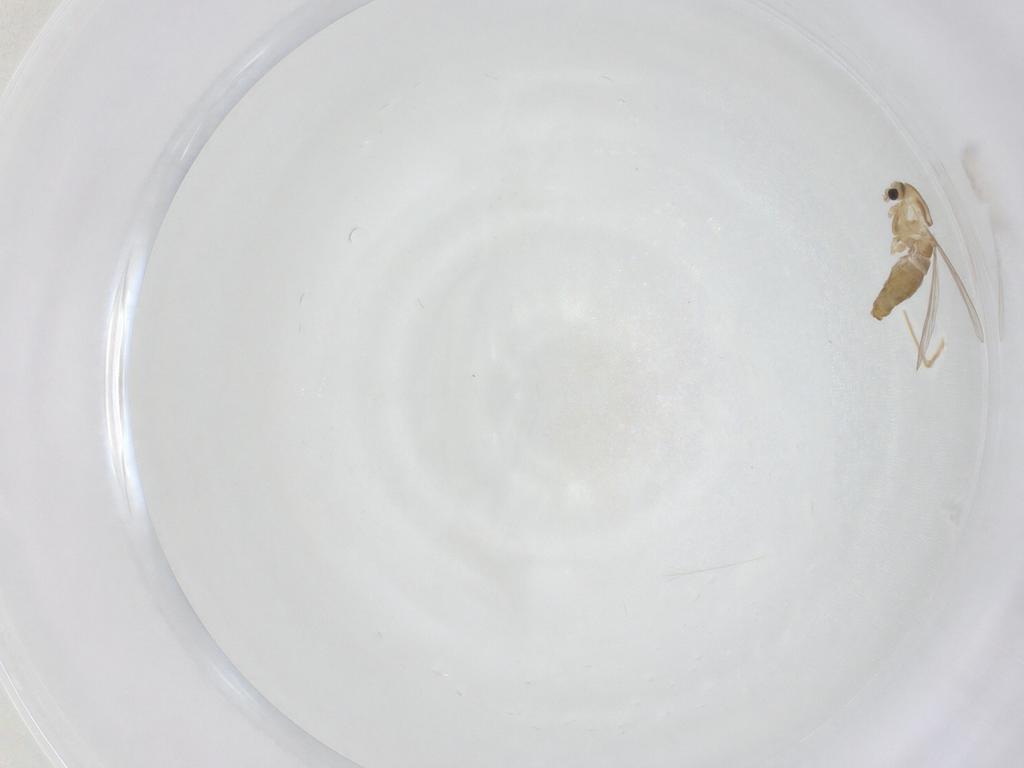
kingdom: Animalia
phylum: Arthropoda
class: Insecta
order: Diptera
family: Chironomidae
